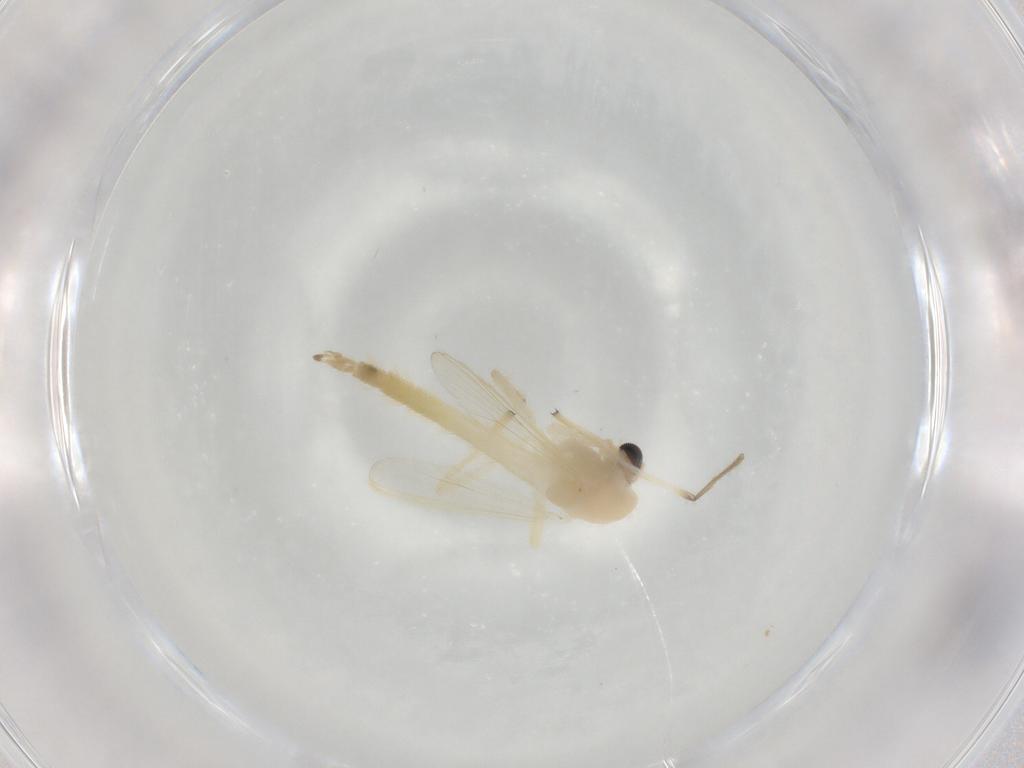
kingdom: Animalia
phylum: Arthropoda
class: Insecta
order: Diptera
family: Chironomidae
